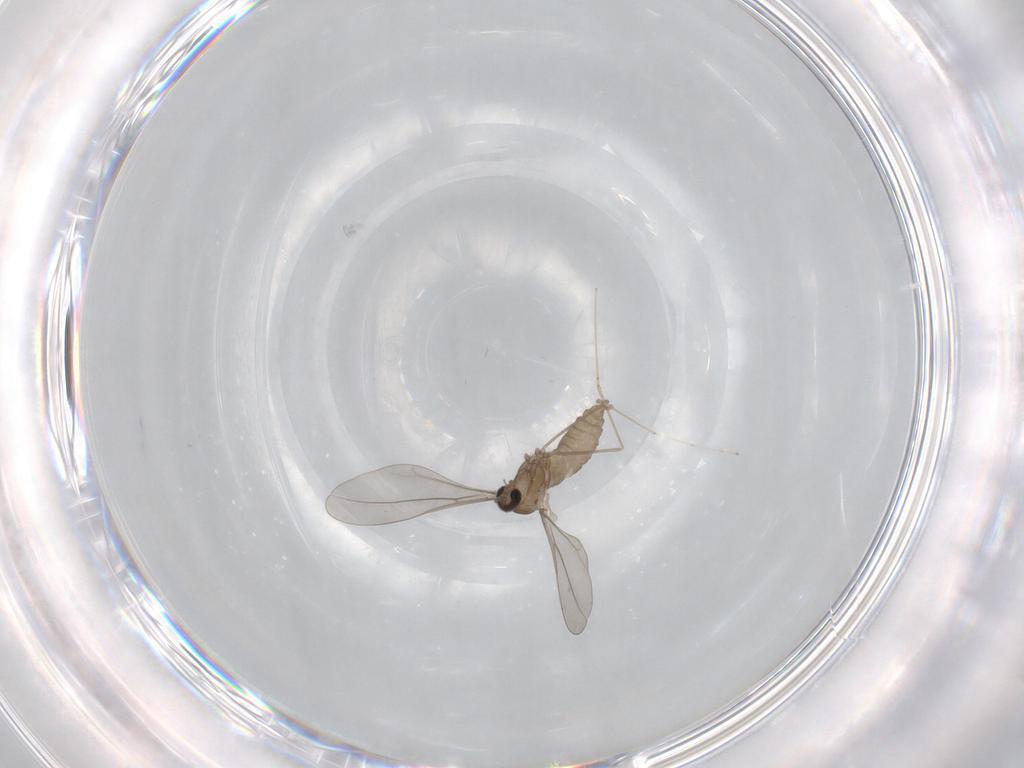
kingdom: Animalia
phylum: Arthropoda
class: Insecta
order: Diptera
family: Cecidomyiidae
